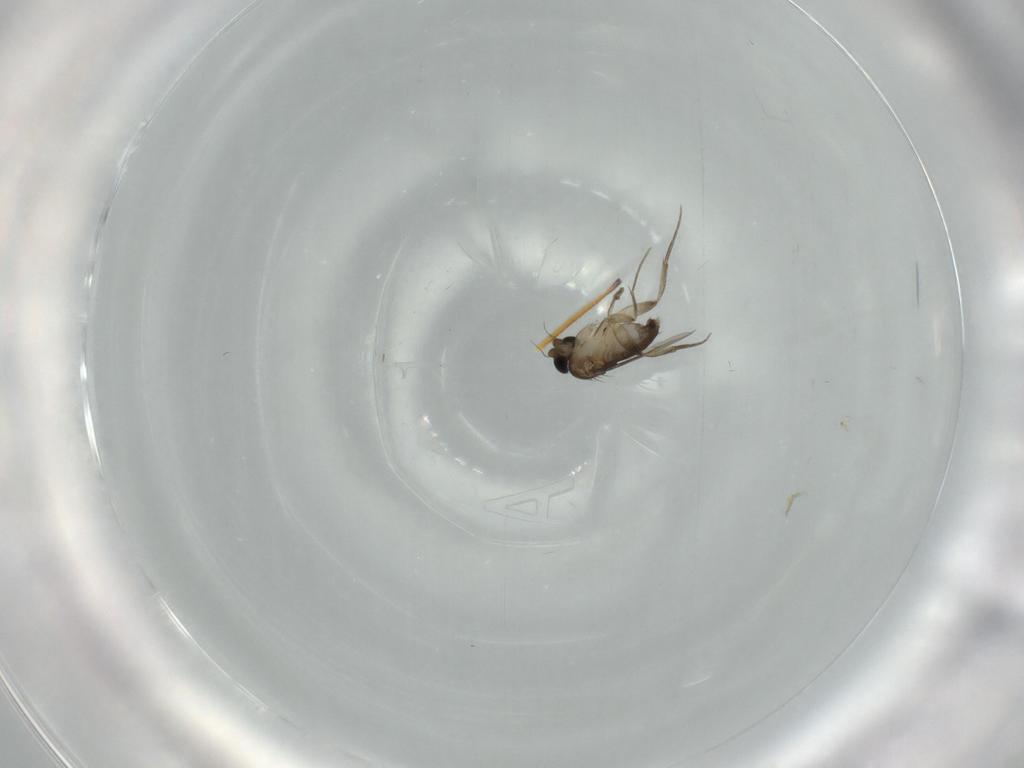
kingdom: Animalia
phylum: Arthropoda
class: Insecta
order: Diptera
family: Phoridae
